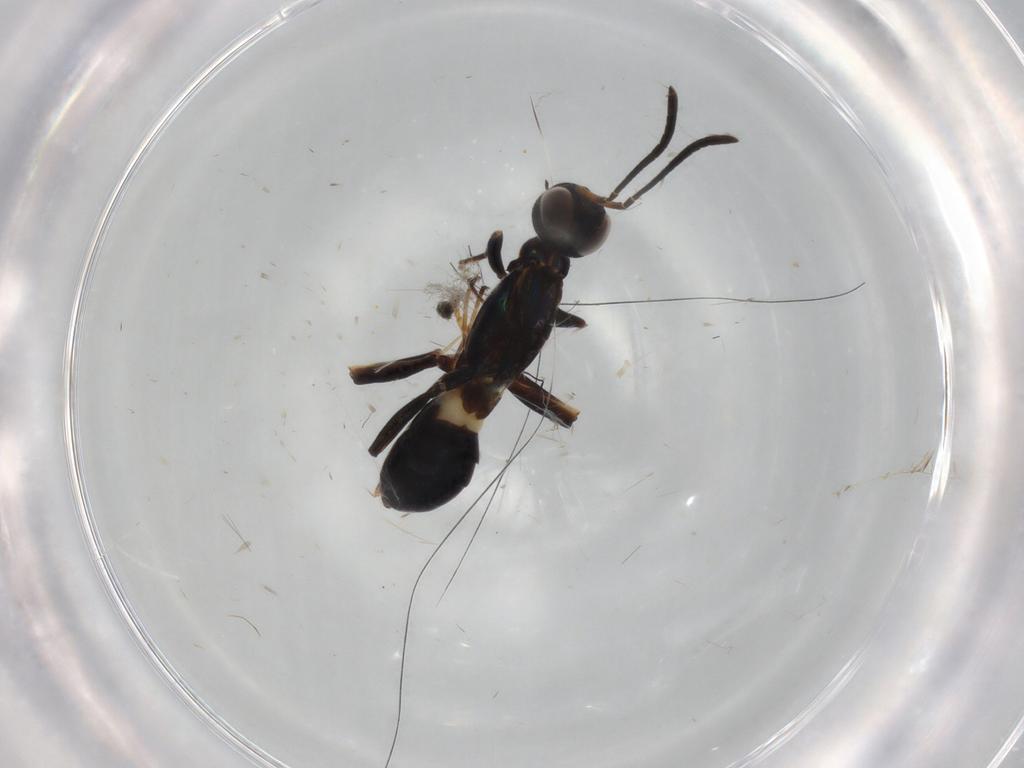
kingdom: Animalia
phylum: Arthropoda
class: Insecta
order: Hymenoptera
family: Eupelmidae
